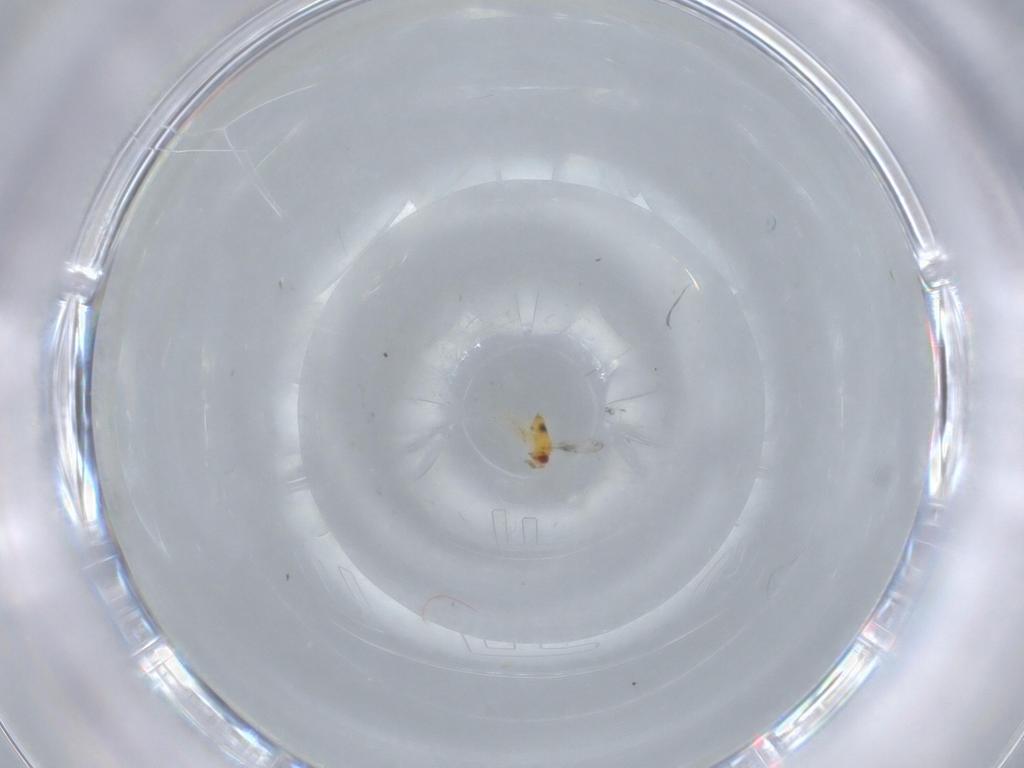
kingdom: Animalia
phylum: Arthropoda
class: Insecta
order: Hymenoptera
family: Trichogrammatidae
